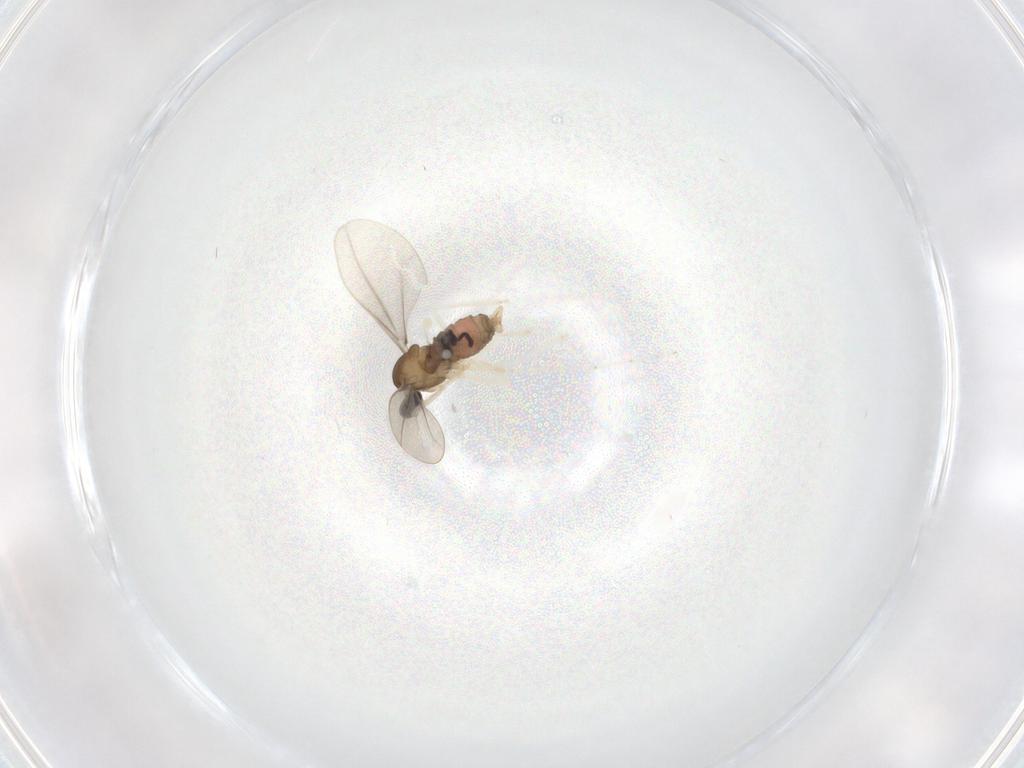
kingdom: Animalia
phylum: Arthropoda
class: Insecta
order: Diptera
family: Cecidomyiidae
